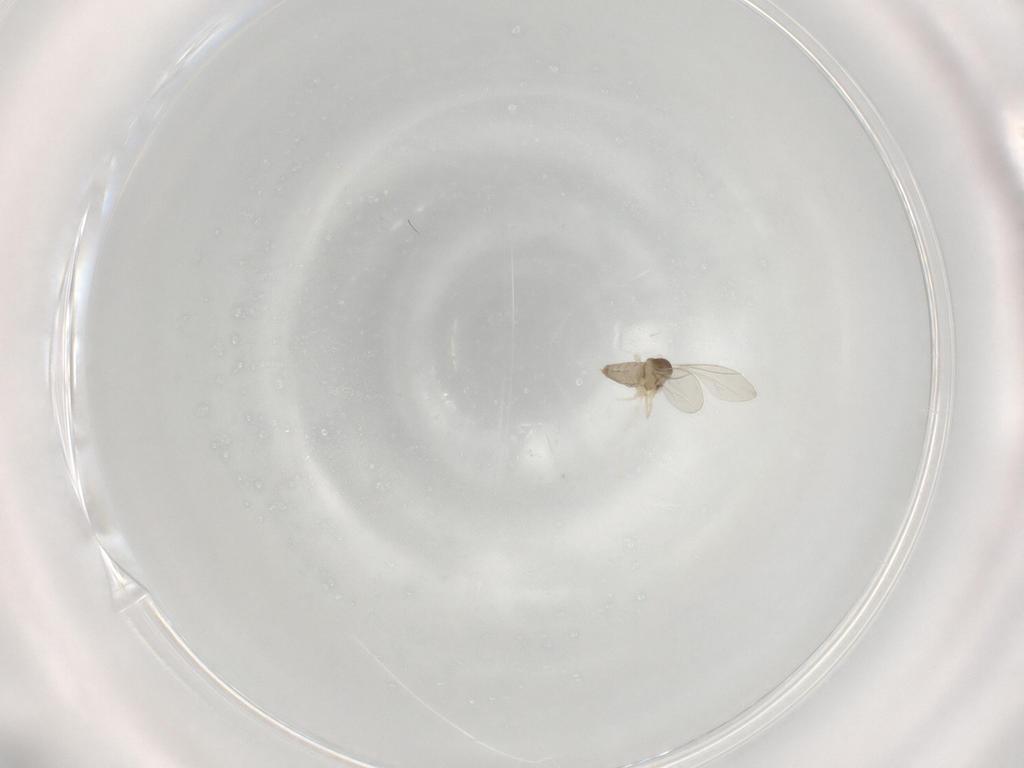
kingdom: Animalia
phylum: Arthropoda
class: Insecta
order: Diptera
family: Cecidomyiidae
